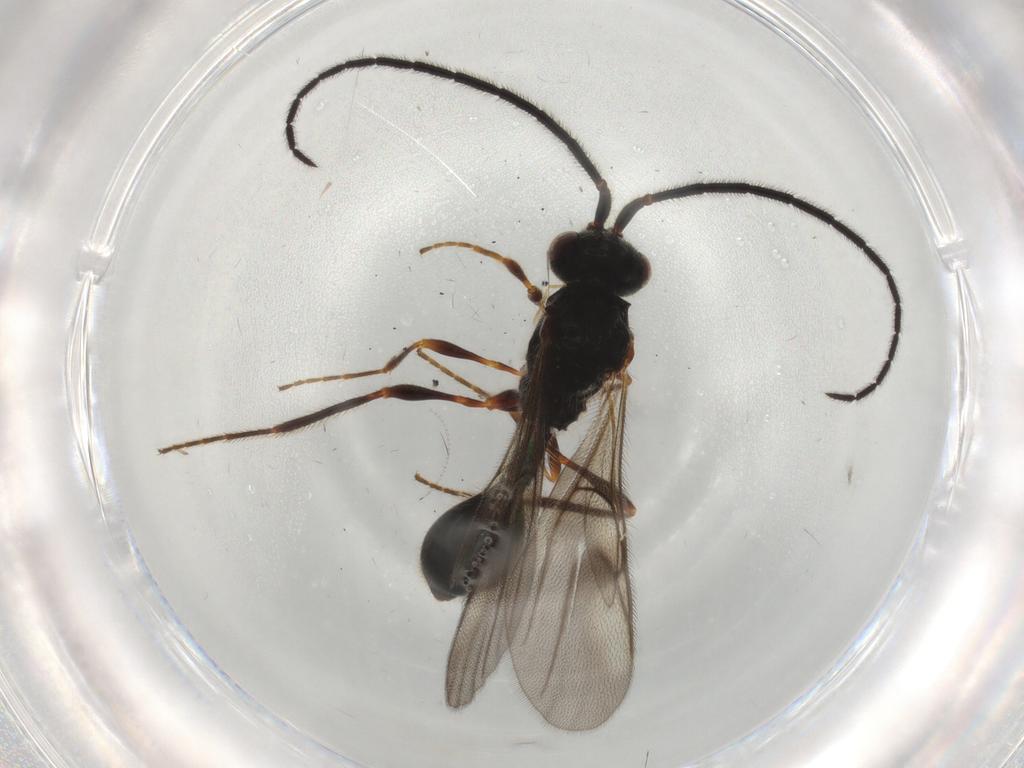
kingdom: Animalia
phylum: Arthropoda
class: Insecta
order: Hymenoptera
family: Diapriidae
